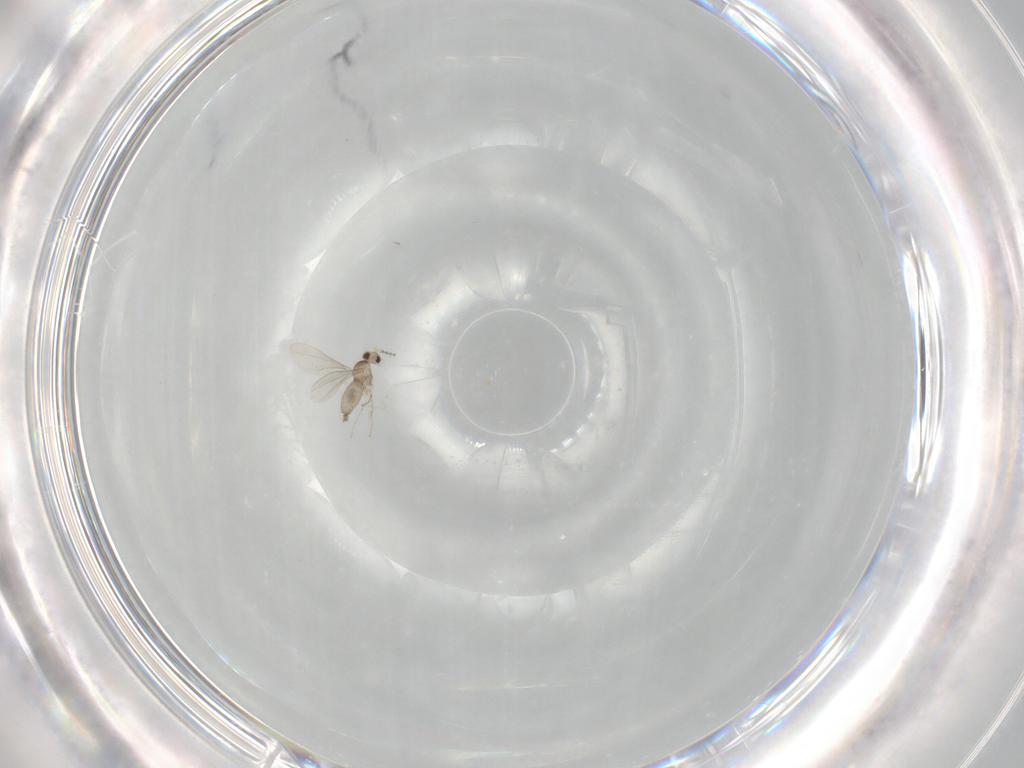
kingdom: Animalia
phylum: Arthropoda
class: Insecta
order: Diptera
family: Cecidomyiidae
